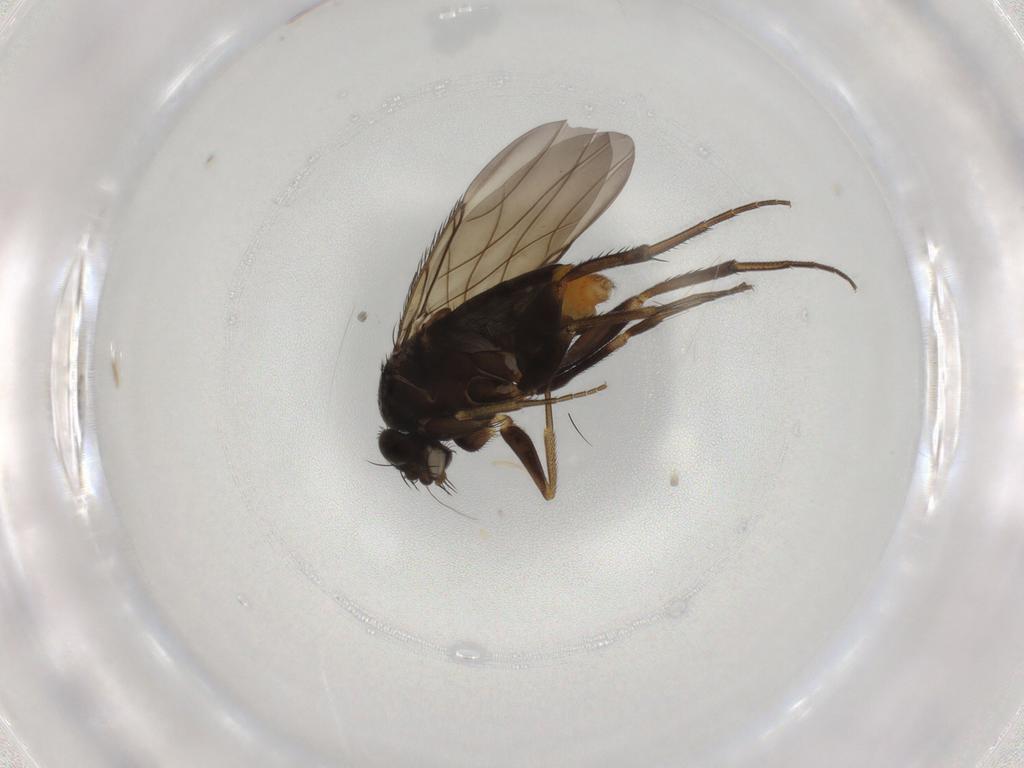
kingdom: Animalia
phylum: Arthropoda
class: Insecta
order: Diptera
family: Phoridae
